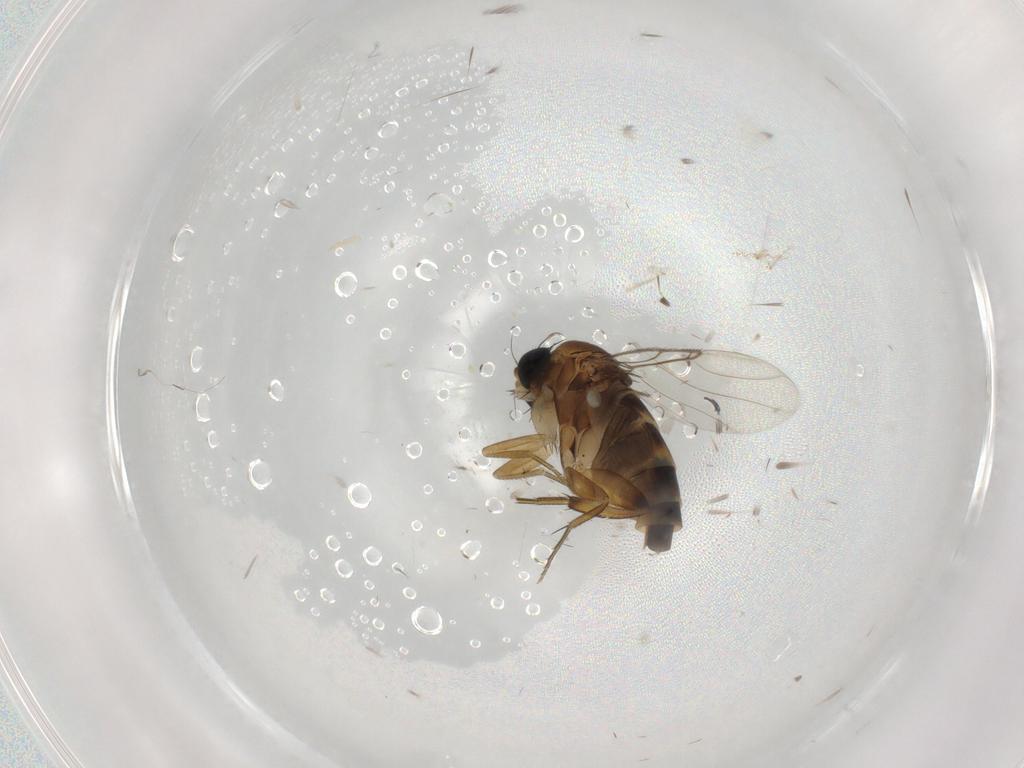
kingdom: Animalia
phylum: Arthropoda
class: Insecta
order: Diptera
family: Phoridae
